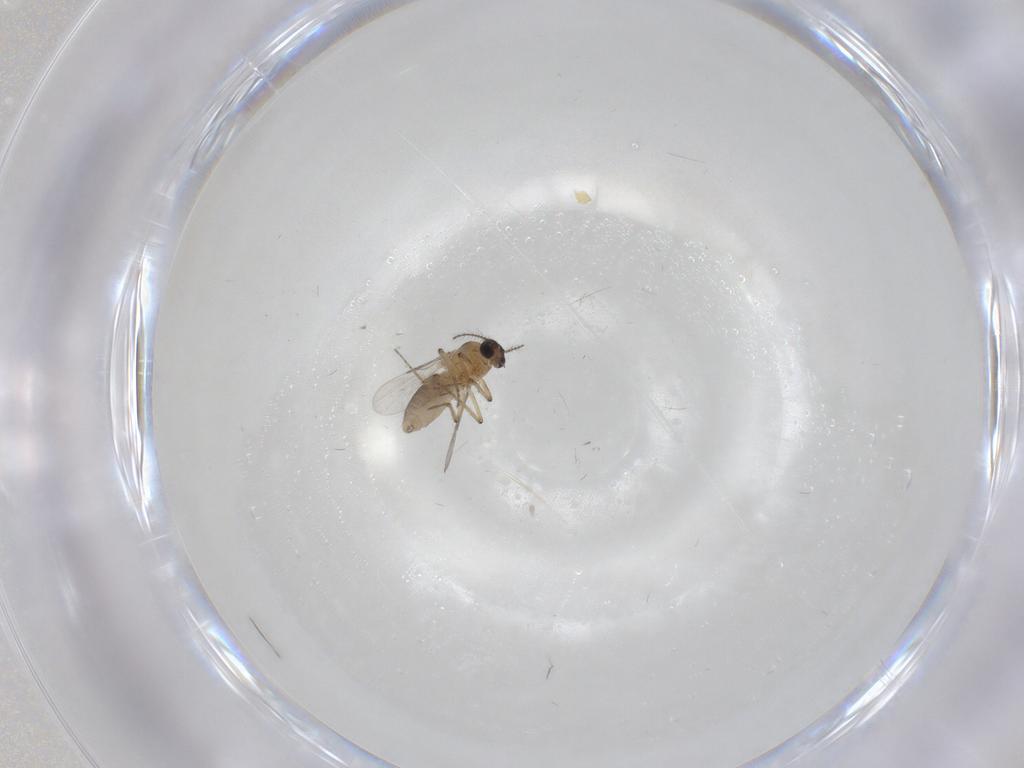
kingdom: Animalia
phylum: Arthropoda
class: Insecta
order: Diptera
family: Chironomidae
